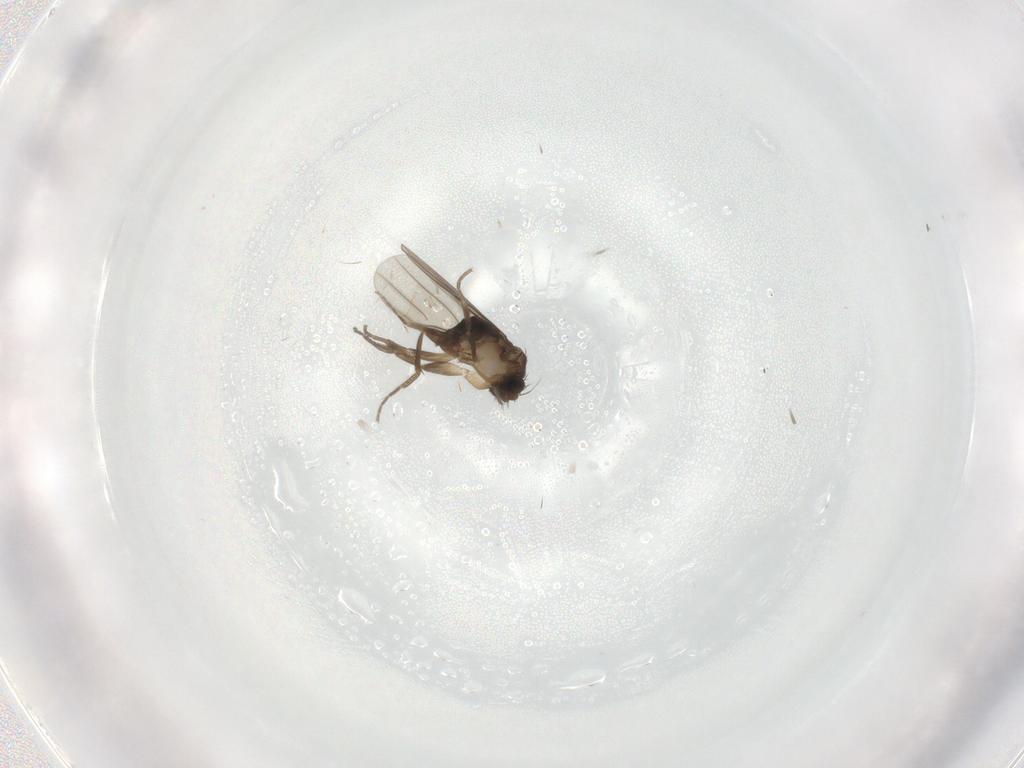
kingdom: Animalia
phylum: Arthropoda
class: Insecta
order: Diptera
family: Cecidomyiidae
